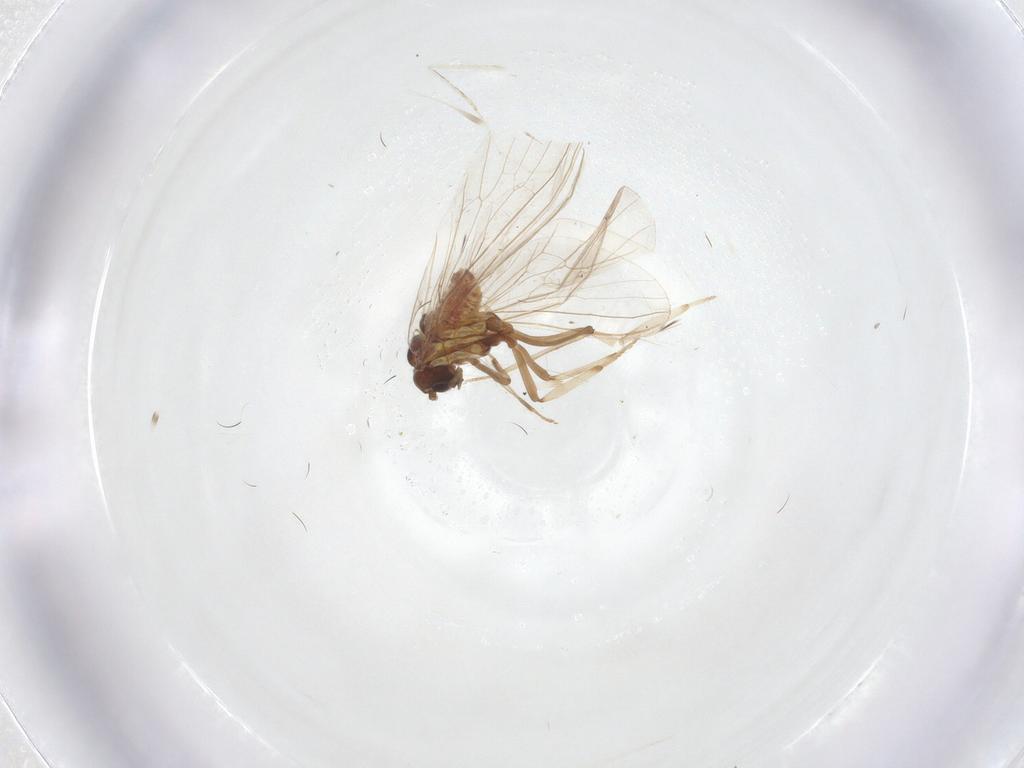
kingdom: Animalia
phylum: Arthropoda
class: Insecta
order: Neuroptera
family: Coniopterygidae
